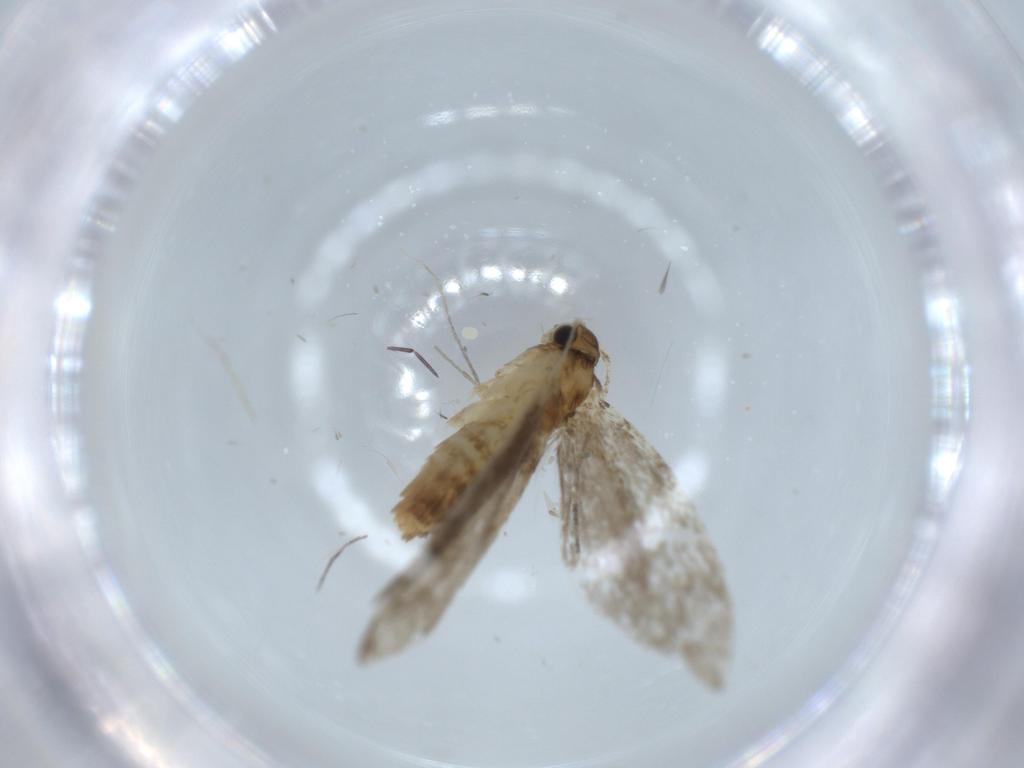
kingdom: Animalia
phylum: Arthropoda
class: Insecta
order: Lepidoptera
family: Tineidae
